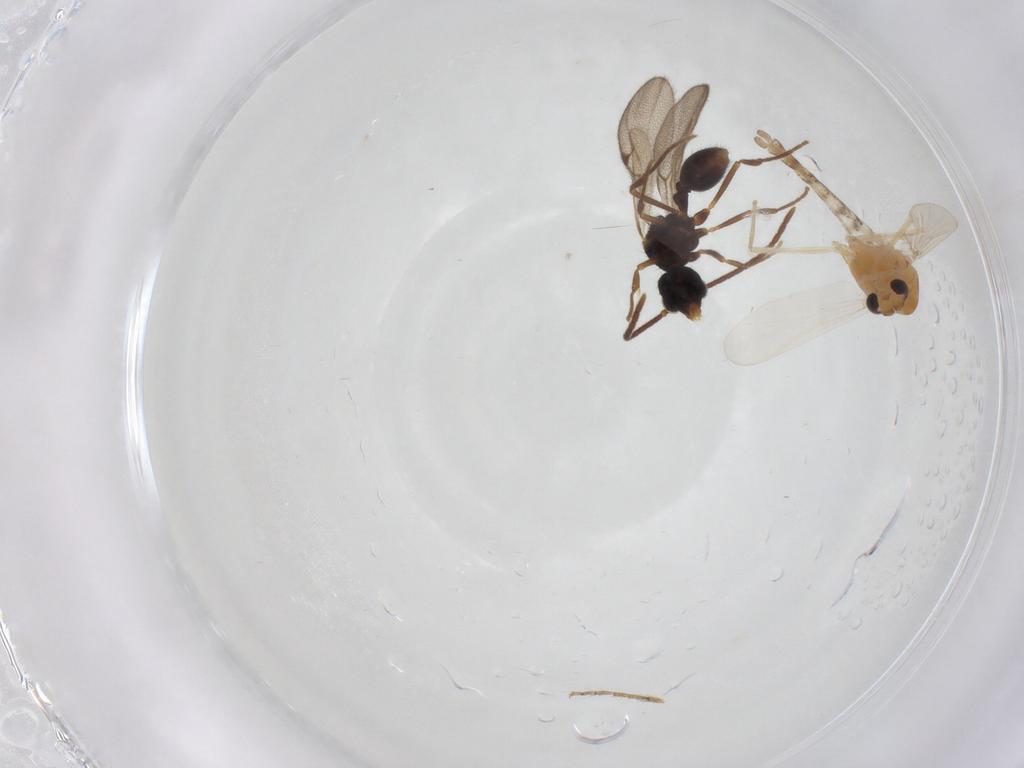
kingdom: Animalia
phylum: Arthropoda
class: Insecta
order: Diptera
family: Chironomidae
